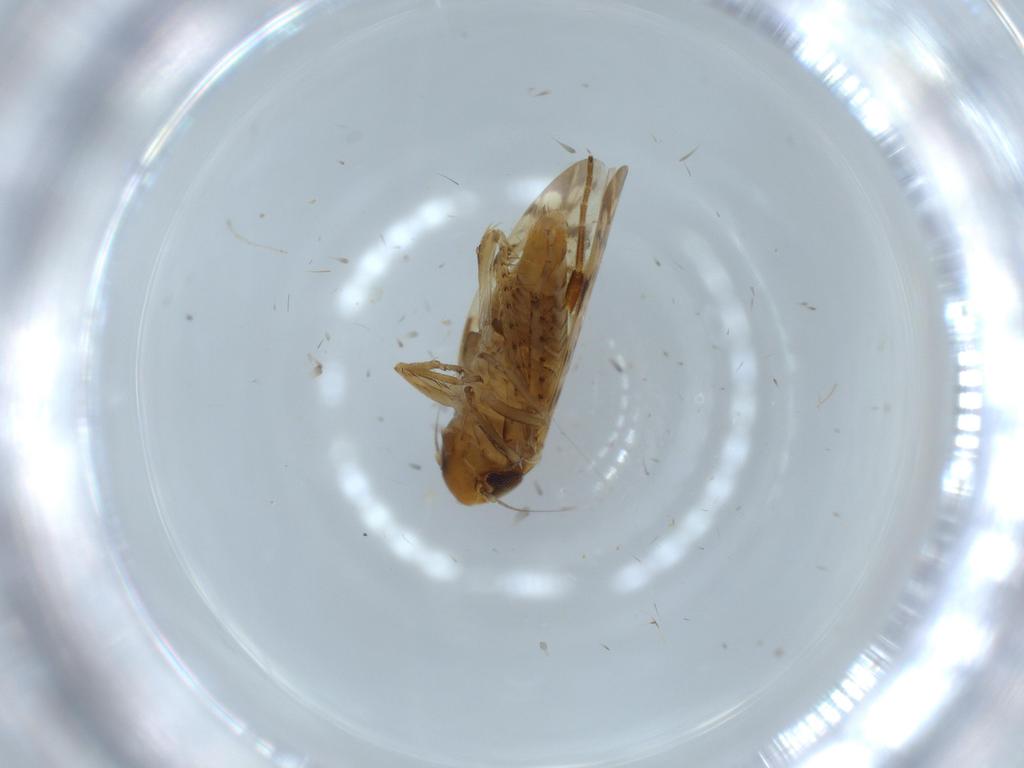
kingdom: Animalia
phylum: Arthropoda
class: Insecta
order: Hemiptera
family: Cicadellidae
